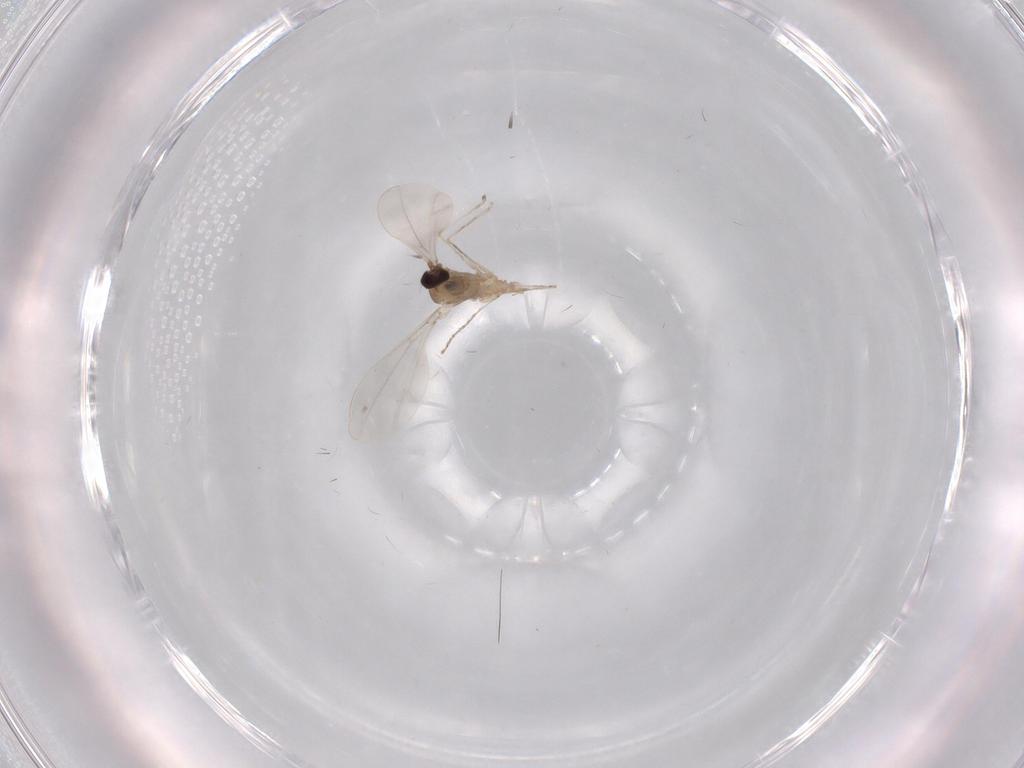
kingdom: Animalia
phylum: Arthropoda
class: Insecta
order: Diptera
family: Cecidomyiidae
